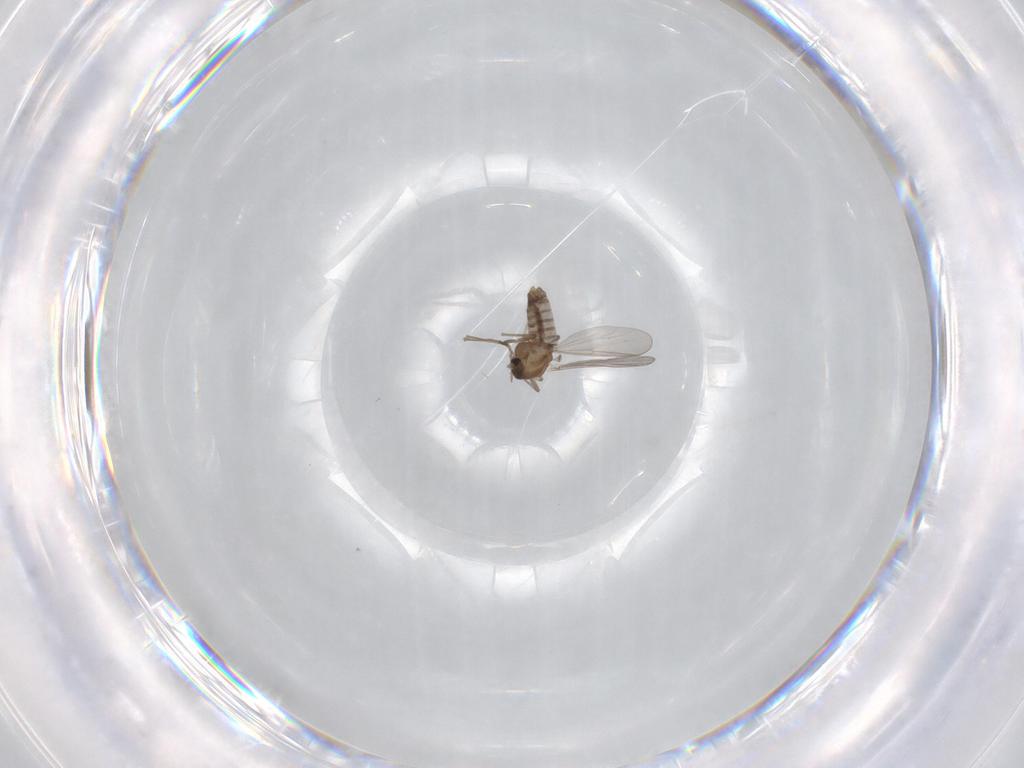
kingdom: Animalia
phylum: Arthropoda
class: Insecta
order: Diptera
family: Chironomidae
